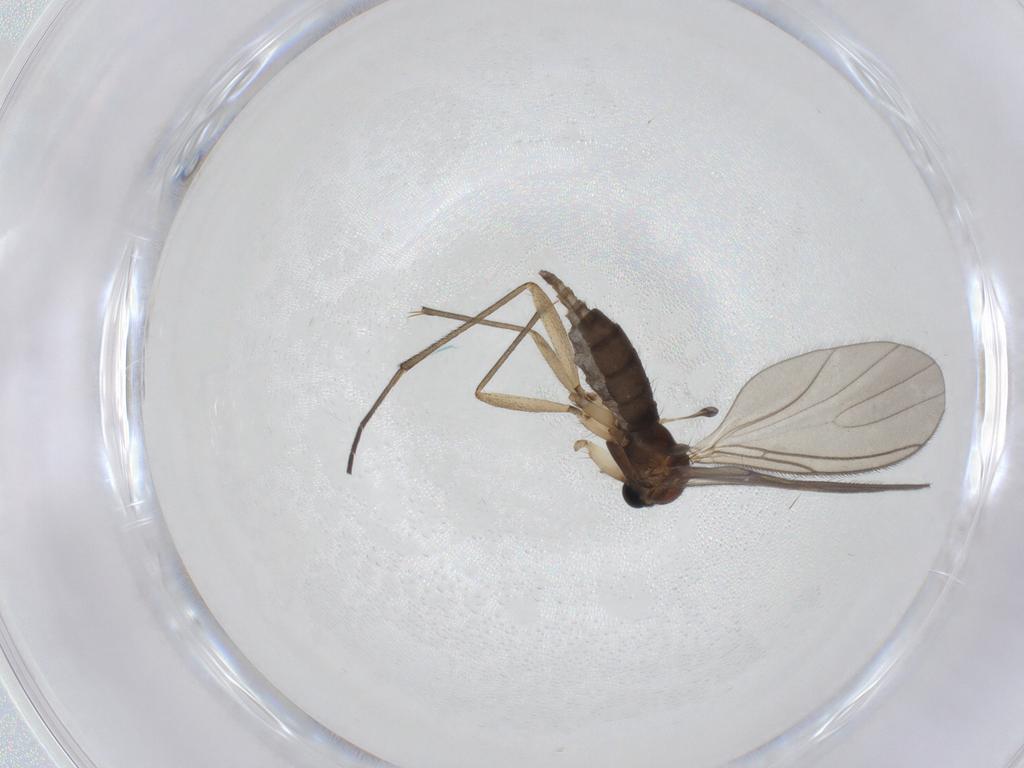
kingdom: Animalia
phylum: Arthropoda
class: Insecta
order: Diptera
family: Sciaridae
